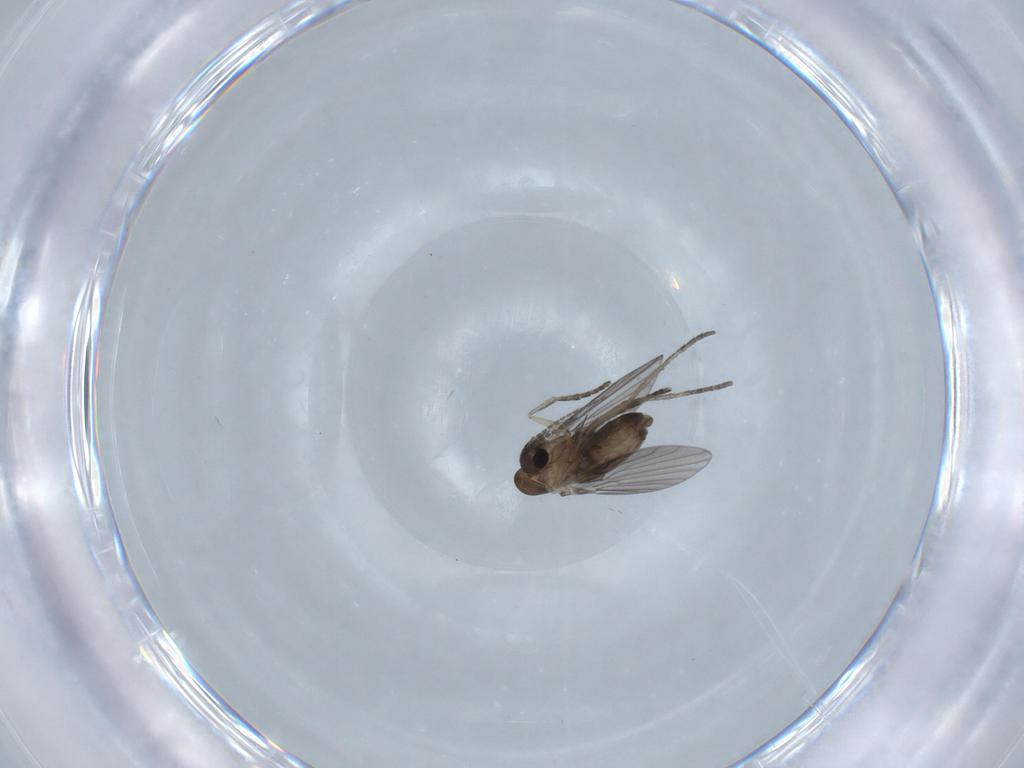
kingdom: Animalia
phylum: Arthropoda
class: Insecta
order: Diptera
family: Psychodidae
